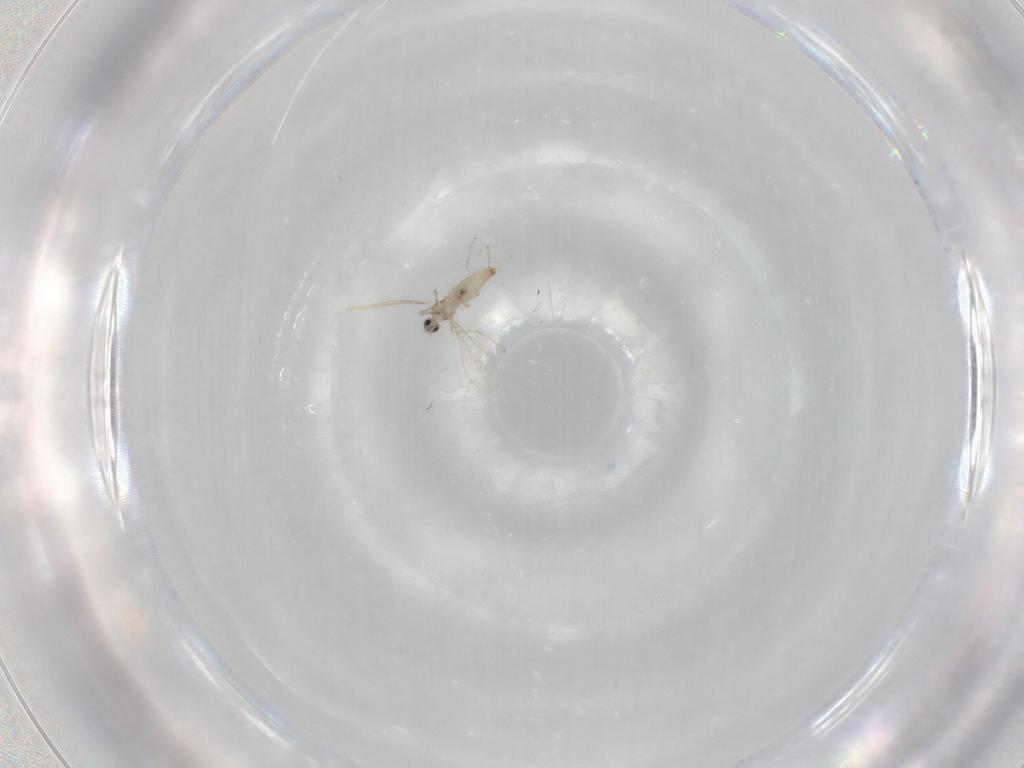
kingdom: Animalia
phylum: Arthropoda
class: Insecta
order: Diptera
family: Cecidomyiidae
